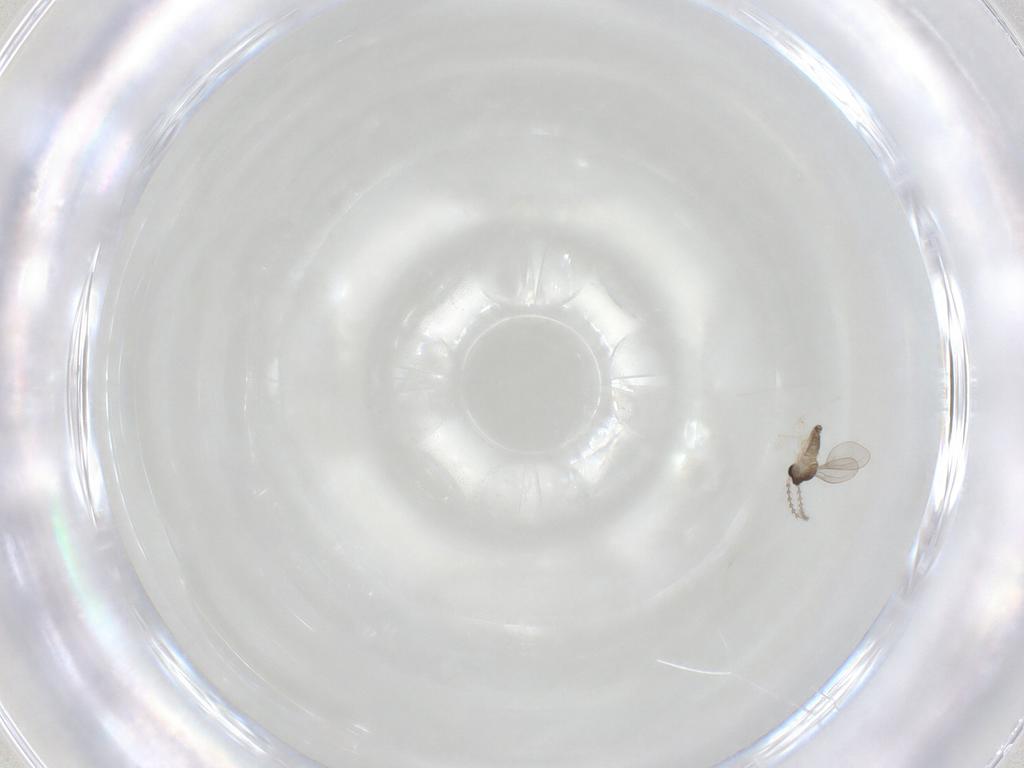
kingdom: Animalia
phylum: Arthropoda
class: Insecta
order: Diptera
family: Cecidomyiidae
